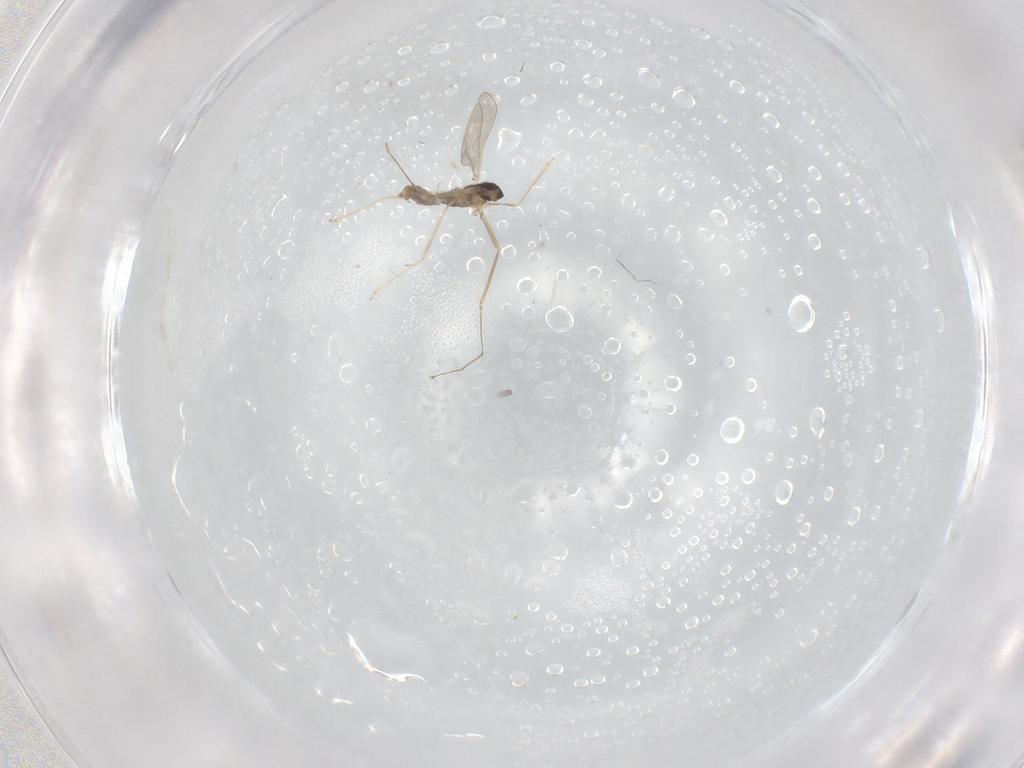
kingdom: Animalia
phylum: Arthropoda
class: Insecta
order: Diptera
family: Cecidomyiidae
